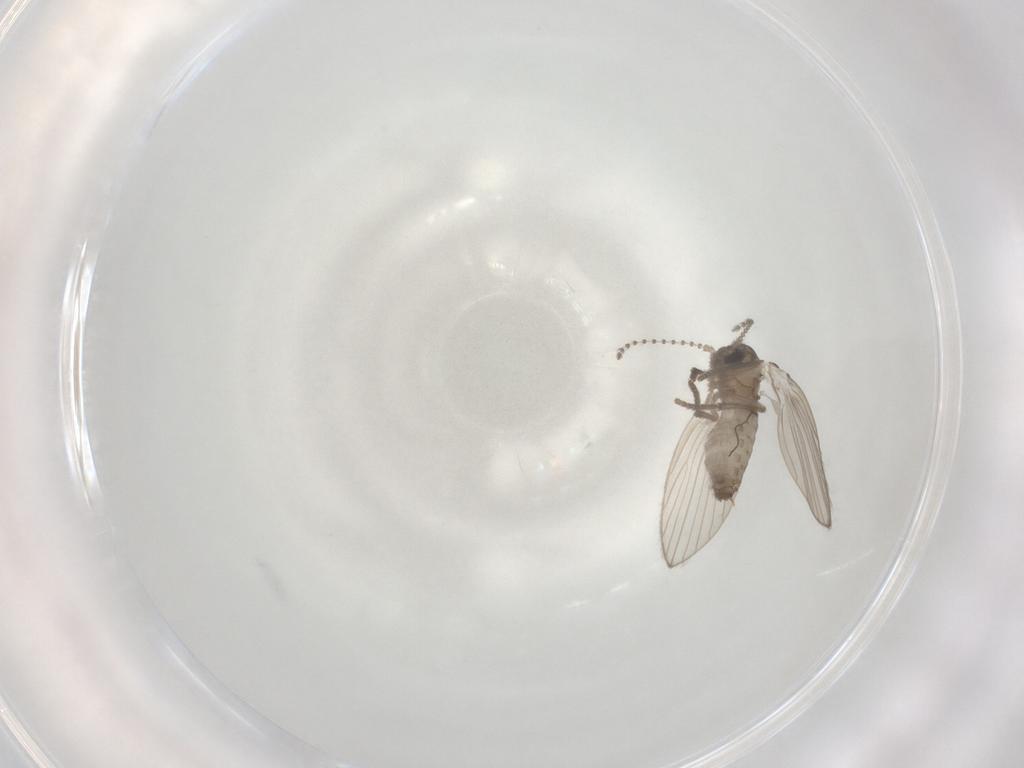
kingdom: Animalia
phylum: Arthropoda
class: Insecta
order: Diptera
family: Psychodidae
